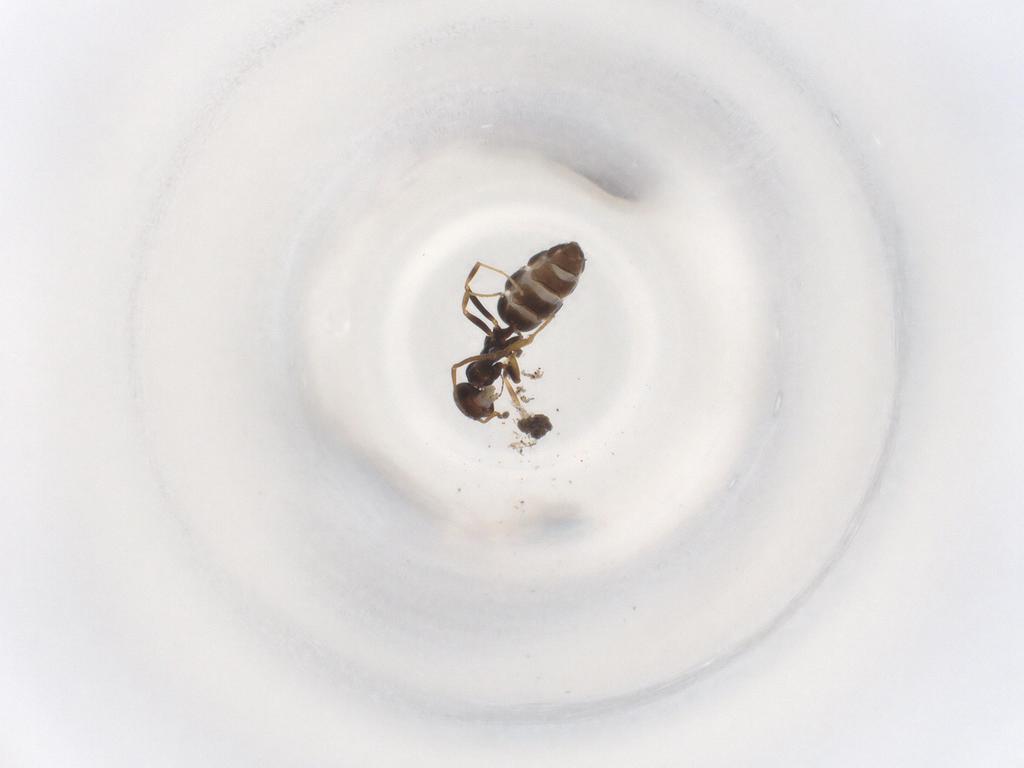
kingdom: Animalia
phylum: Arthropoda
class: Insecta
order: Hymenoptera
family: Formicidae
